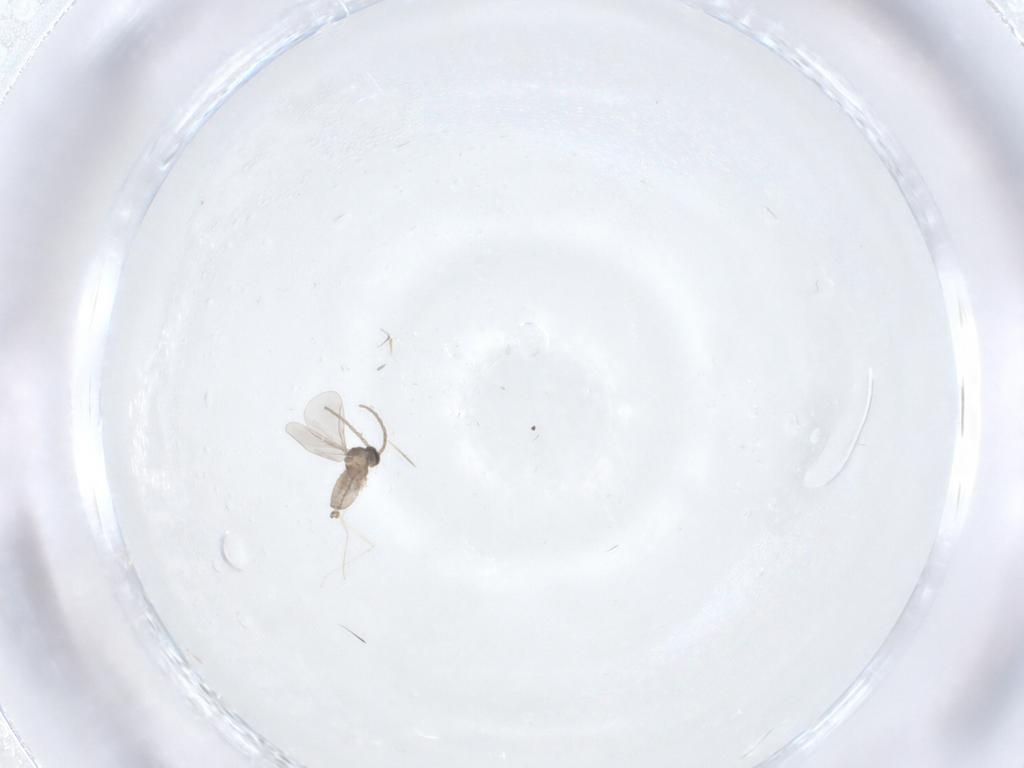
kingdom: Animalia
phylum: Arthropoda
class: Insecta
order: Diptera
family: Cecidomyiidae
